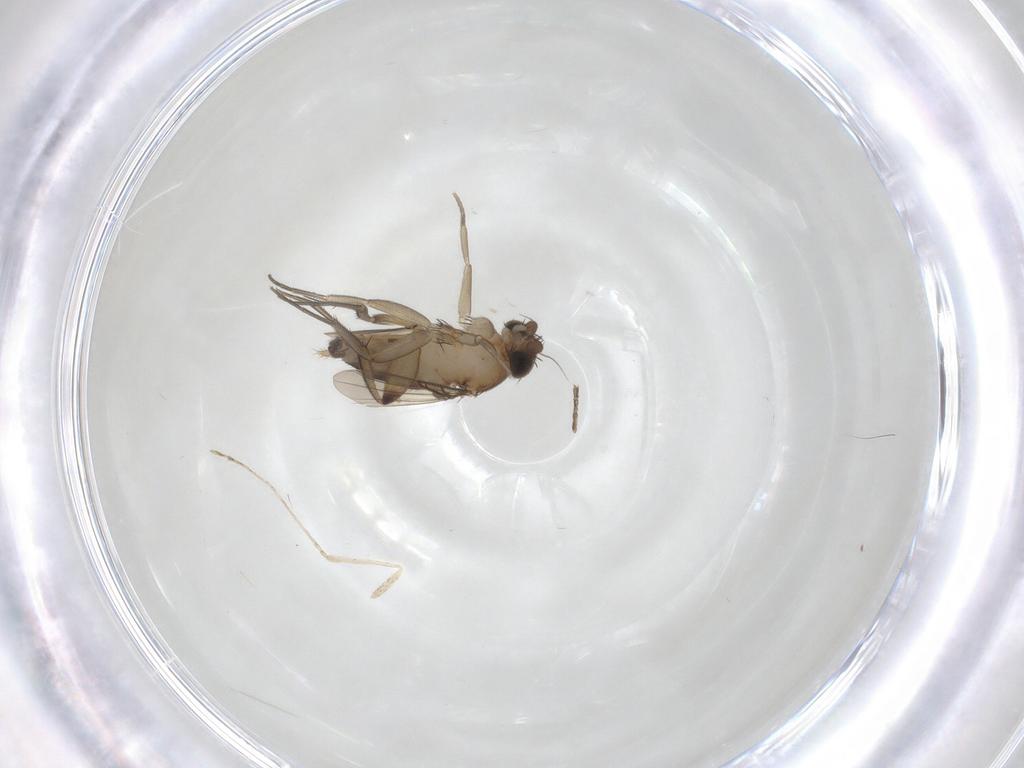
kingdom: Animalia
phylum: Arthropoda
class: Insecta
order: Diptera
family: Phoridae
